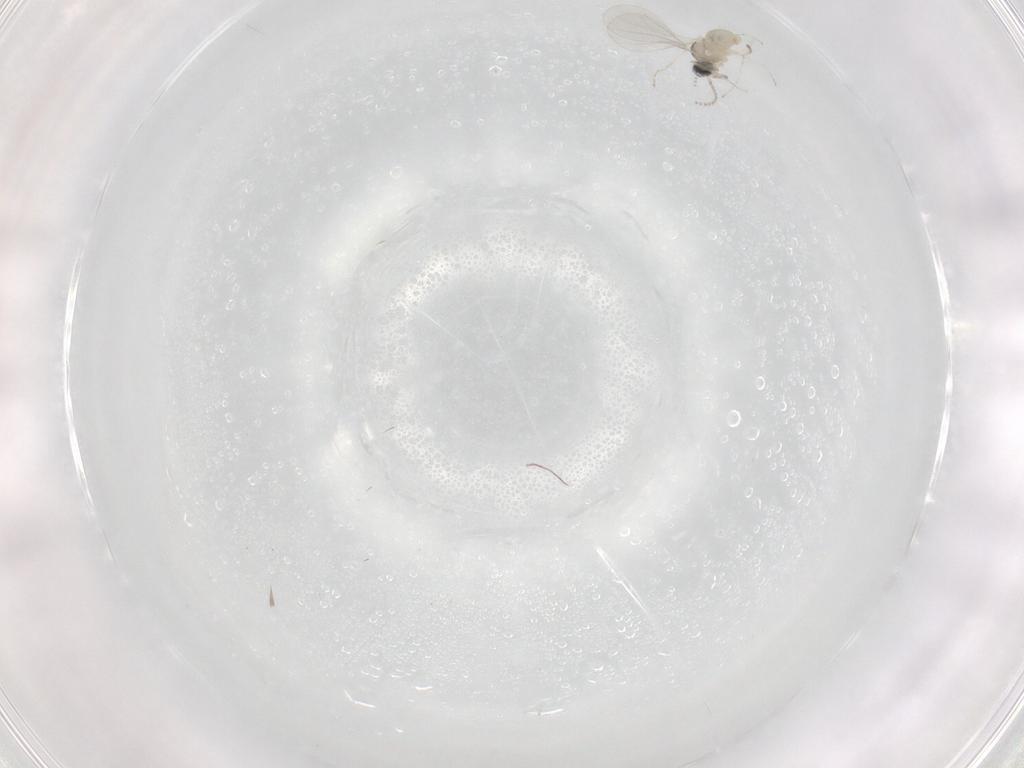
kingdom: Animalia
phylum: Arthropoda
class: Insecta
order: Diptera
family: Cecidomyiidae
